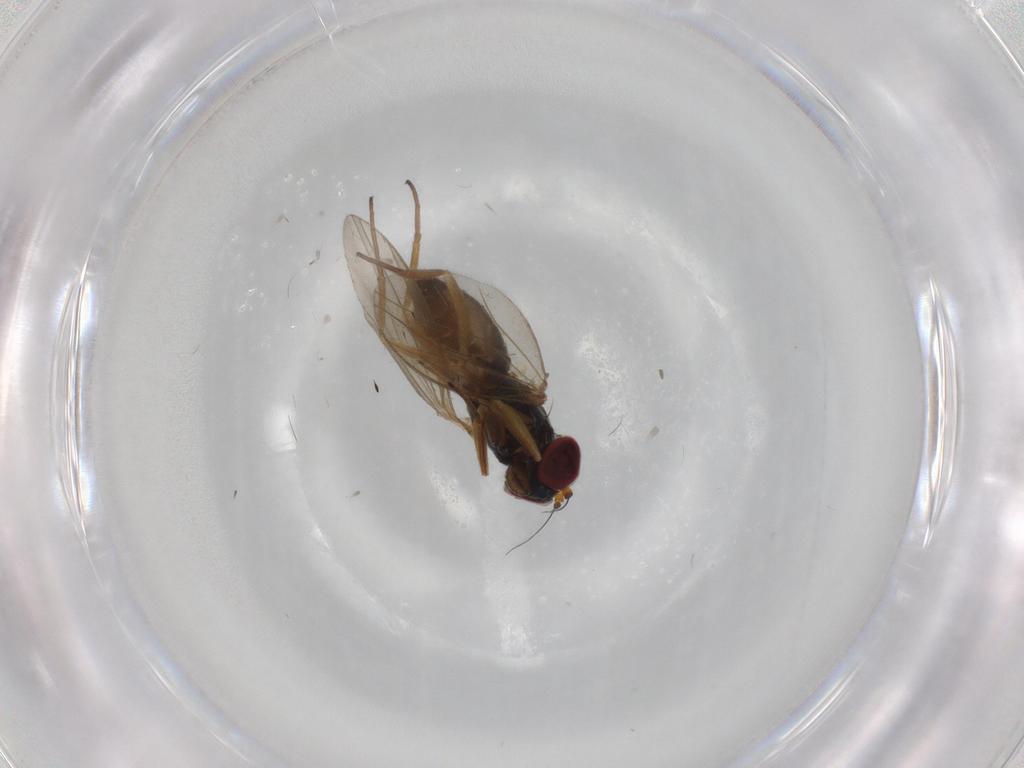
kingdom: Animalia
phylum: Arthropoda
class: Insecta
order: Diptera
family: Dolichopodidae
